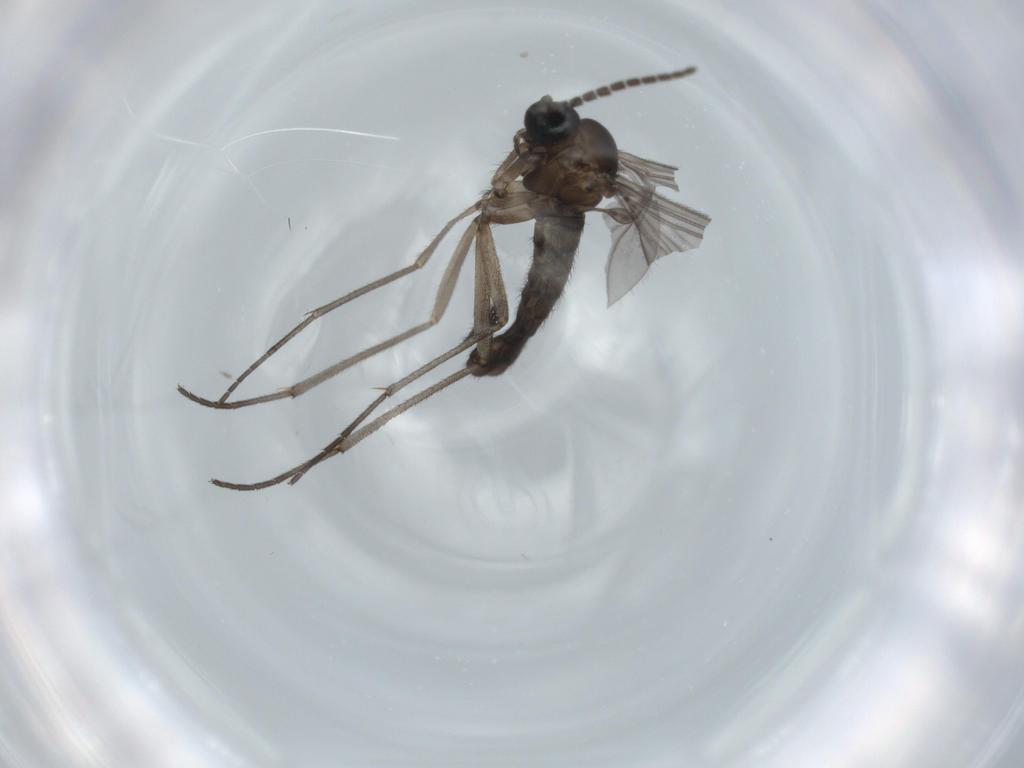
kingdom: Animalia
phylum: Arthropoda
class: Insecta
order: Diptera
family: Sciaridae
